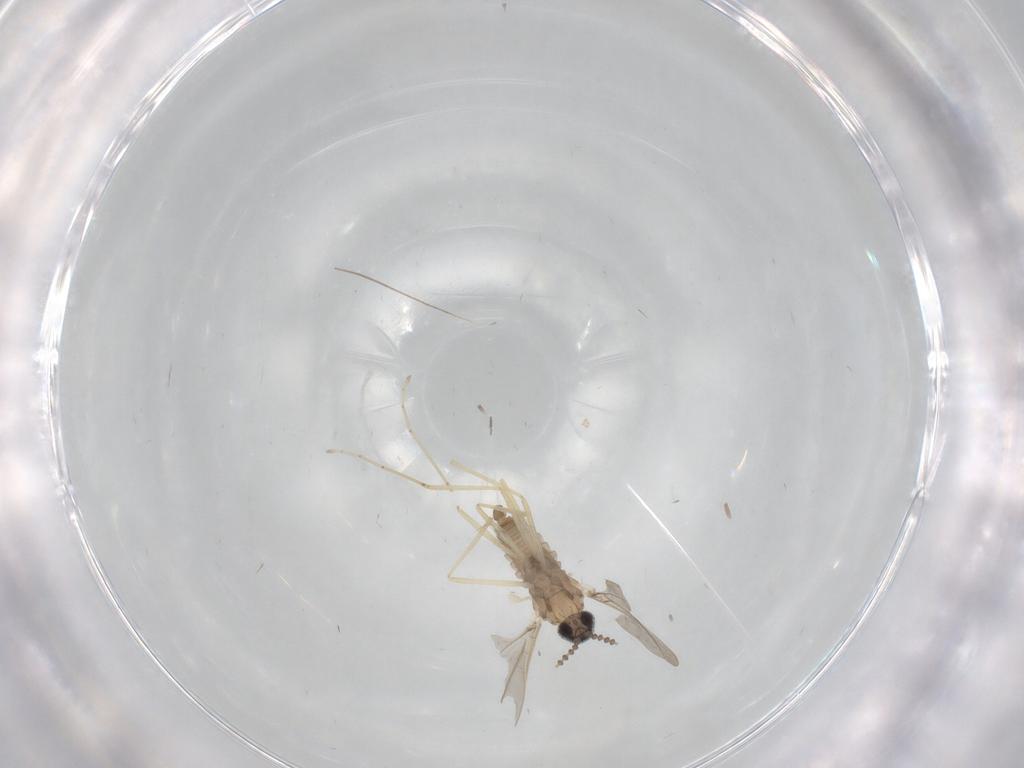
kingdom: Animalia
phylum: Arthropoda
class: Insecta
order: Diptera
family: Cecidomyiidae
